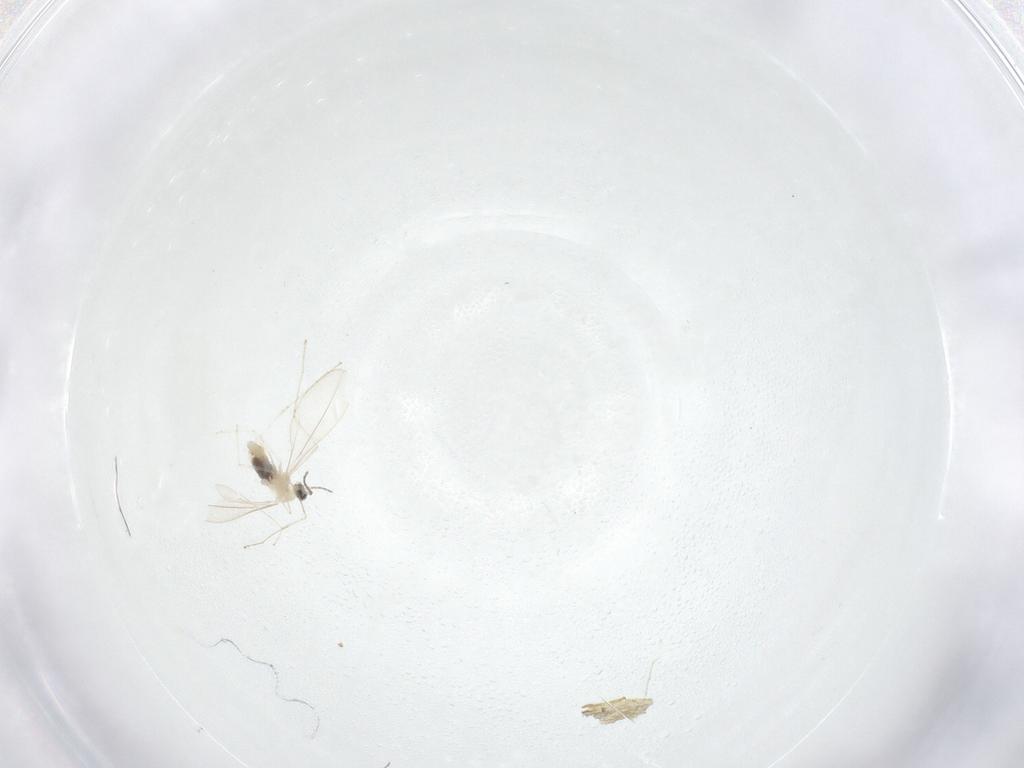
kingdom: Animalia
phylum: Arthropoda
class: Insecta
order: Diptera
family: Cecidomyiidae
